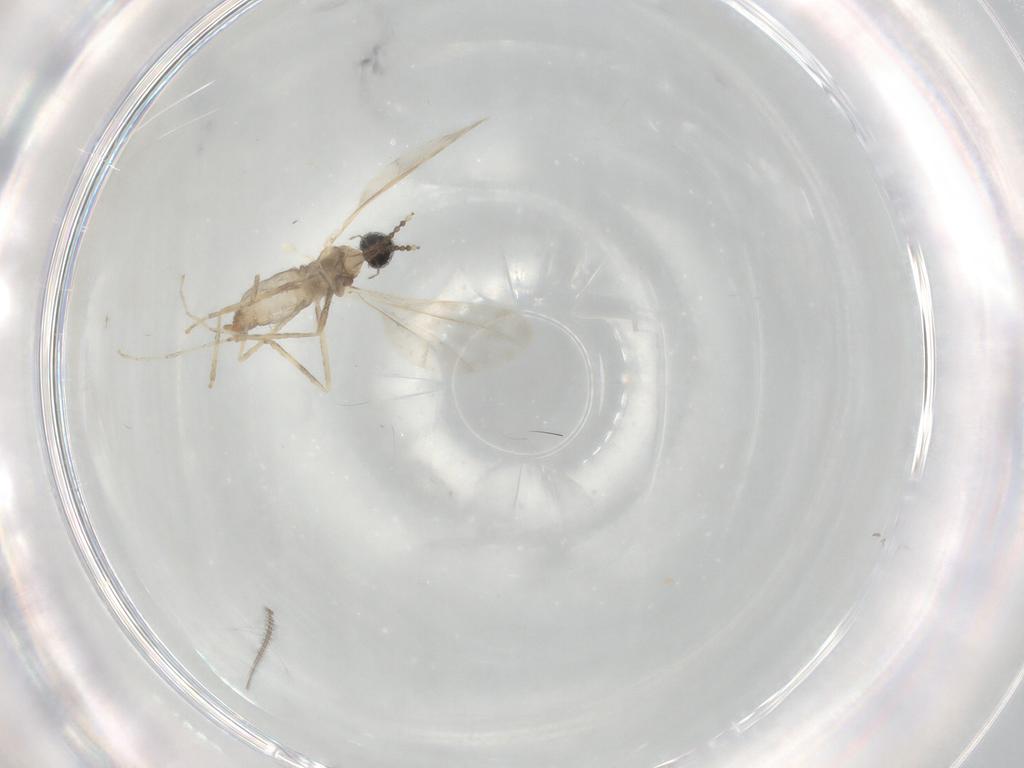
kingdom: Animalia
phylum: Arthropoda
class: Insecta
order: Diptera
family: Cecidomyiidae
